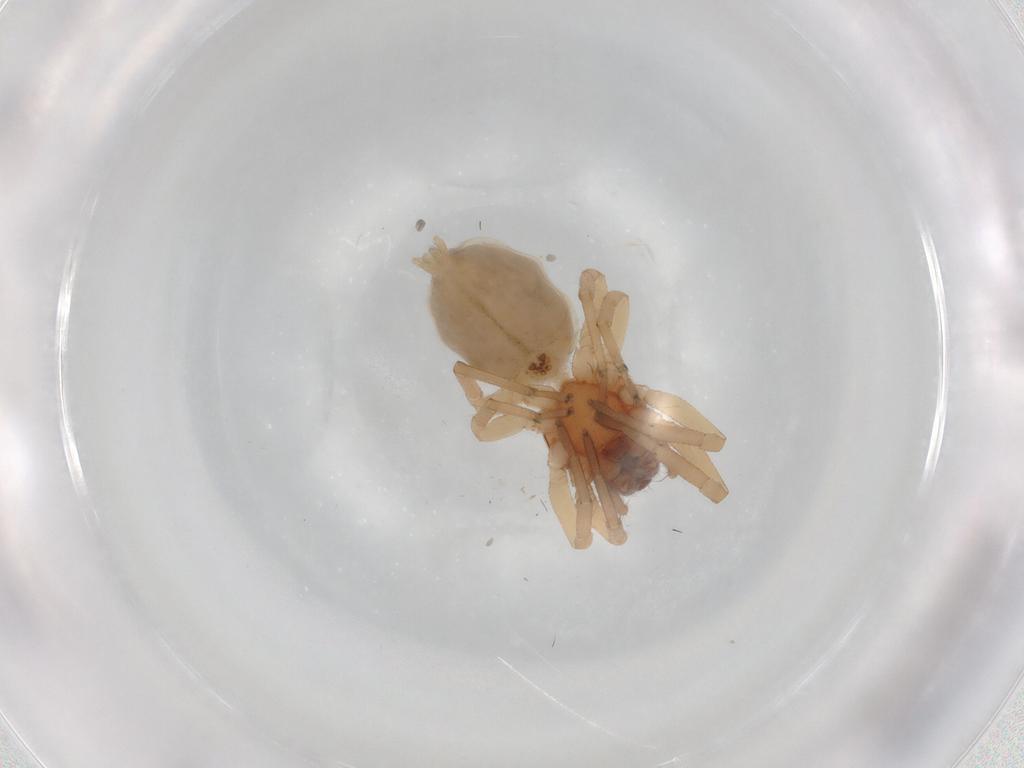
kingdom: Animalia
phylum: Arthropoda
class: Arachnida
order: Araneae
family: Trachelidae
